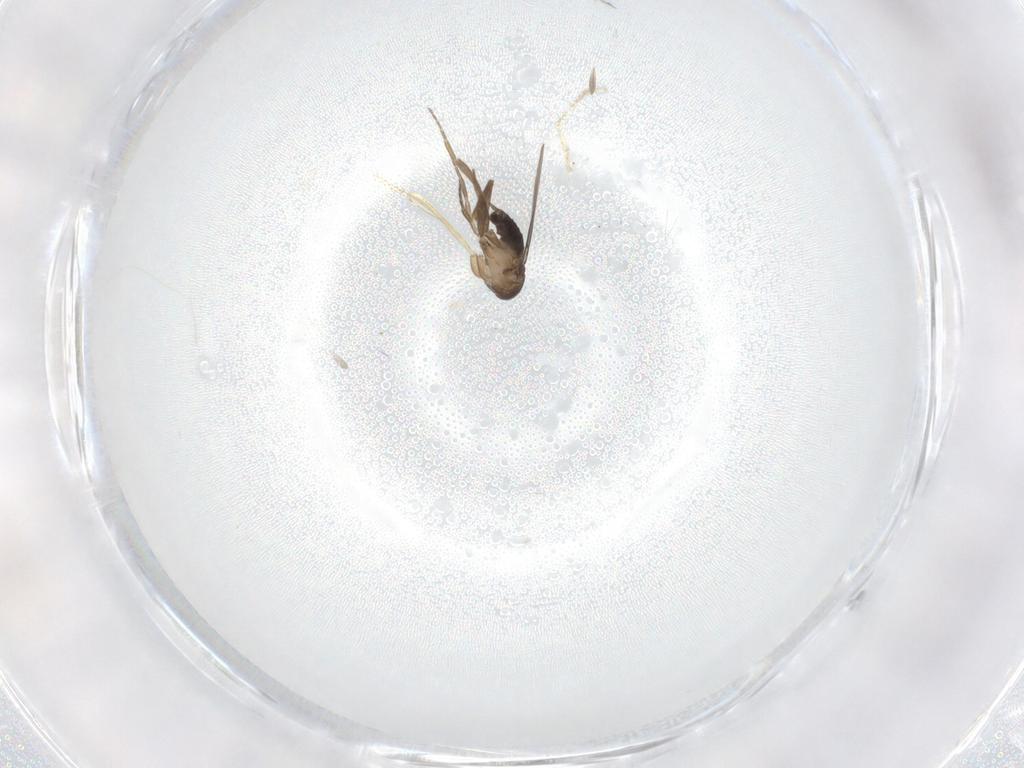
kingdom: Animalia
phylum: Arthropoda
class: Insecta
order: Diptera
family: Phoridae
